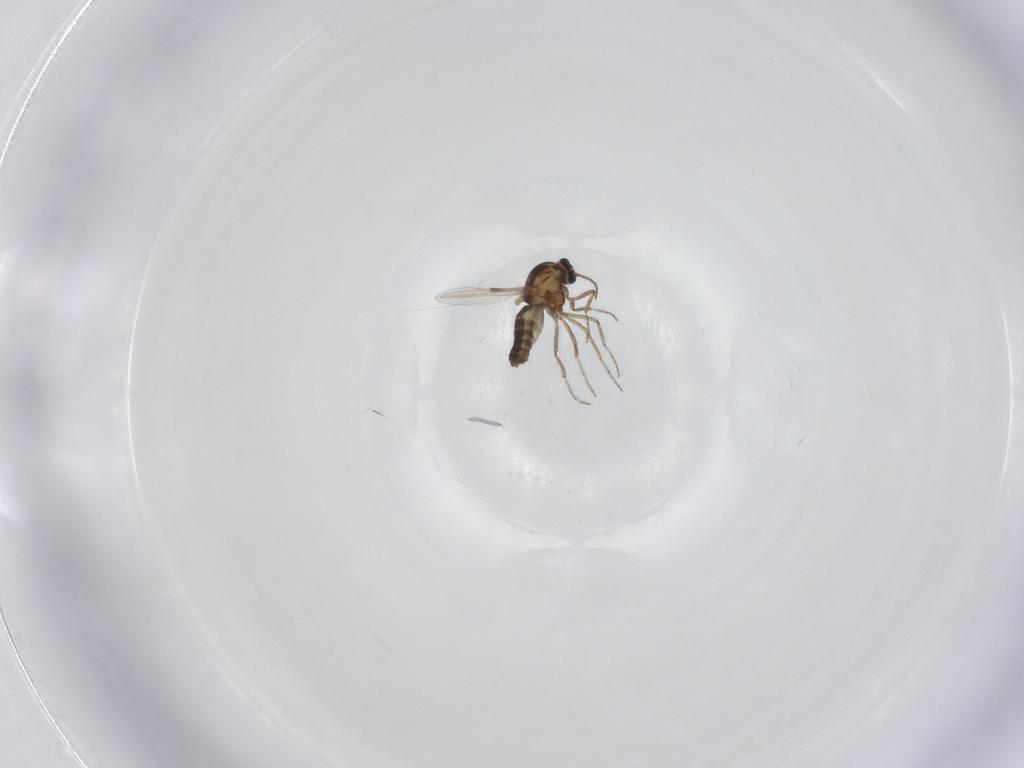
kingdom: Animalia
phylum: Arthropoda
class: Insecta
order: Diptera
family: Ceratopogonidae
